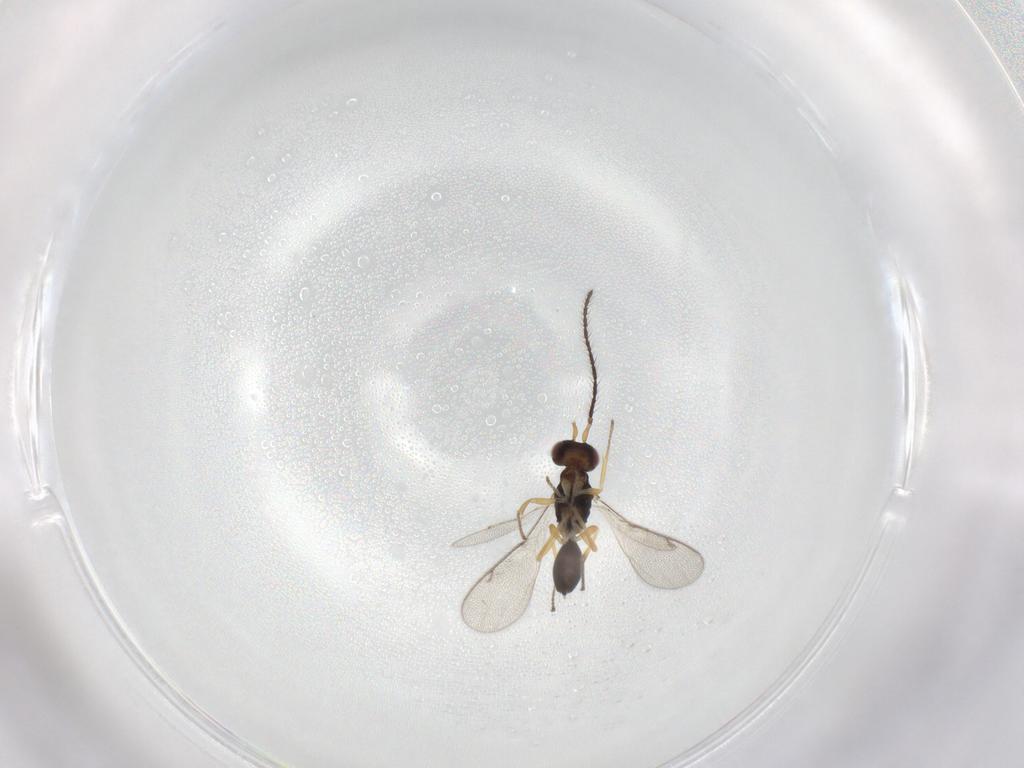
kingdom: Animalia
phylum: Arthropoda
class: Insecta
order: Hymenoptera
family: Diparidae
